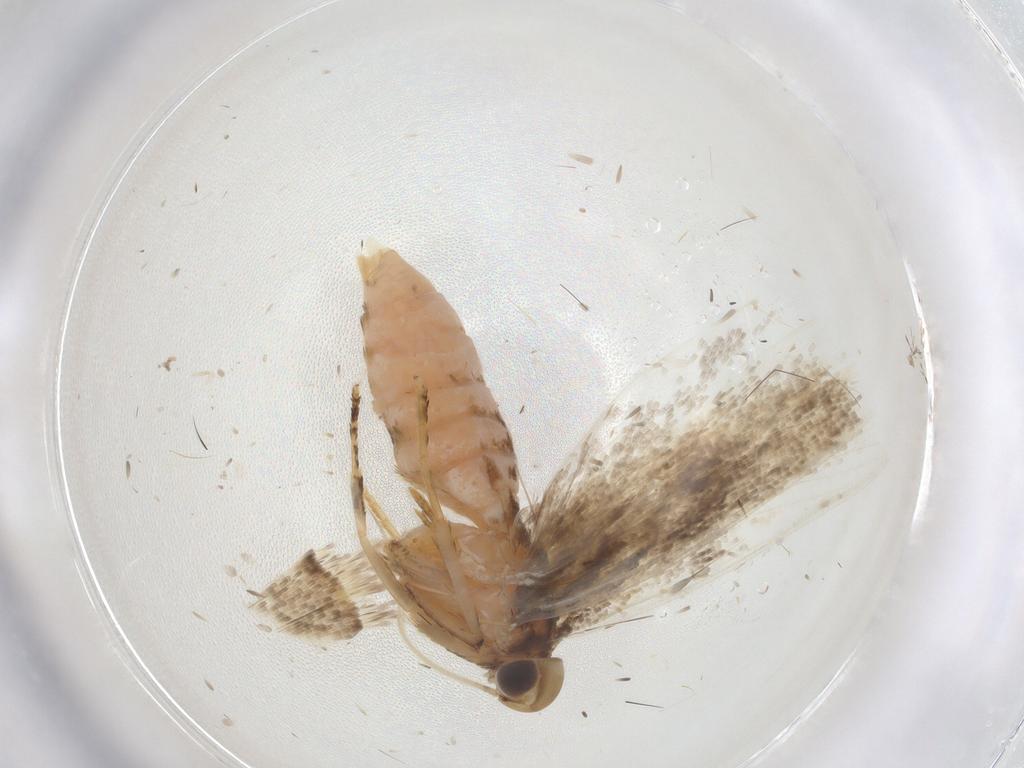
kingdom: Animalia
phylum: Arthropoda
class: Insecta
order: Lepidoptera
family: Gelechiidae
